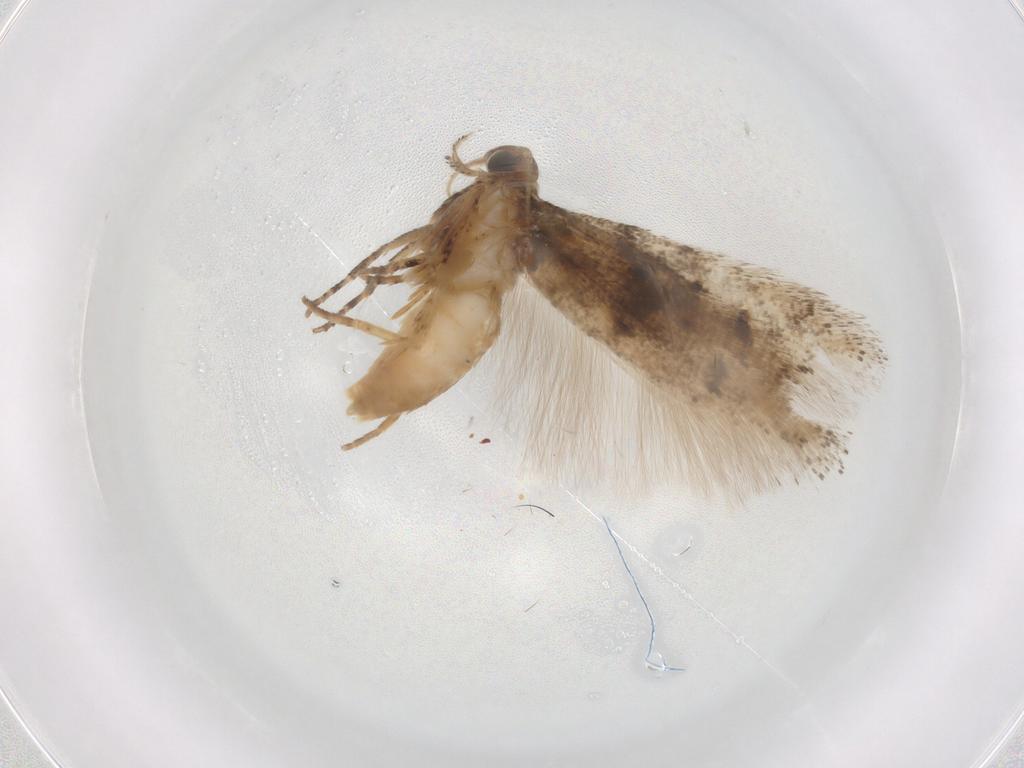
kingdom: Animalia
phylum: Arthropoda
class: Insecta
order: Lepidoptera
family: Gelechiidae
